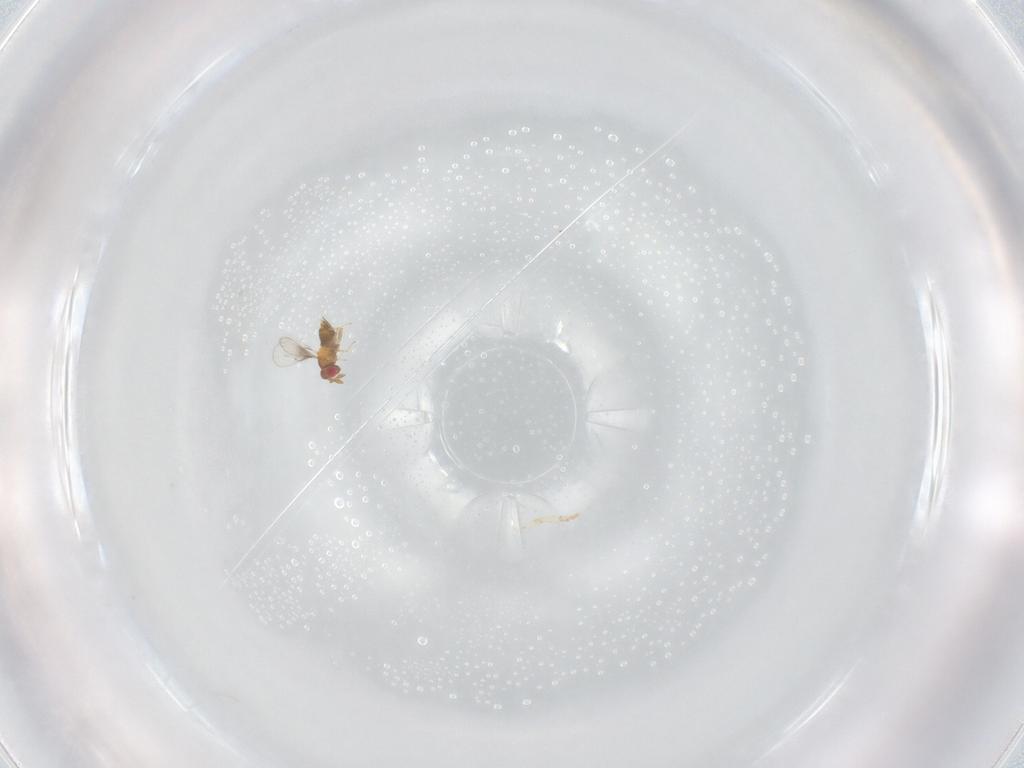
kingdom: Animalia
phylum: Arthropoda
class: Insecta
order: Hymenoptera
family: Trichogrammatidae
